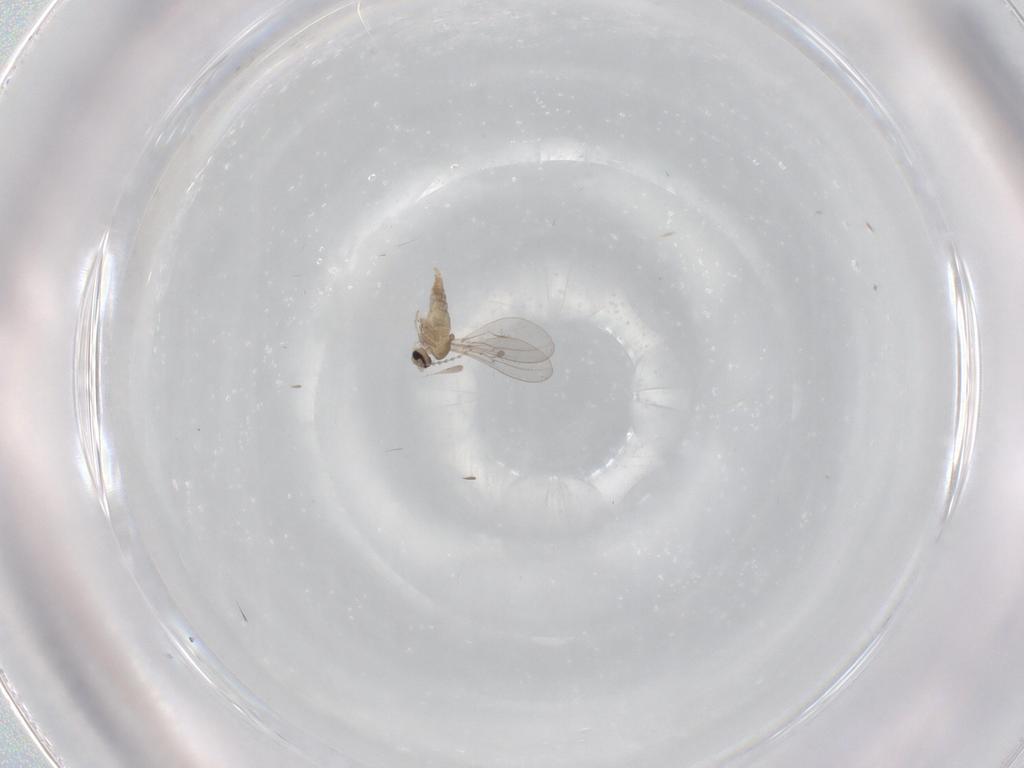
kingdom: Animalia
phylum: Arthropoda
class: Insecta
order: Diptera
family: Cecidomyiidae
